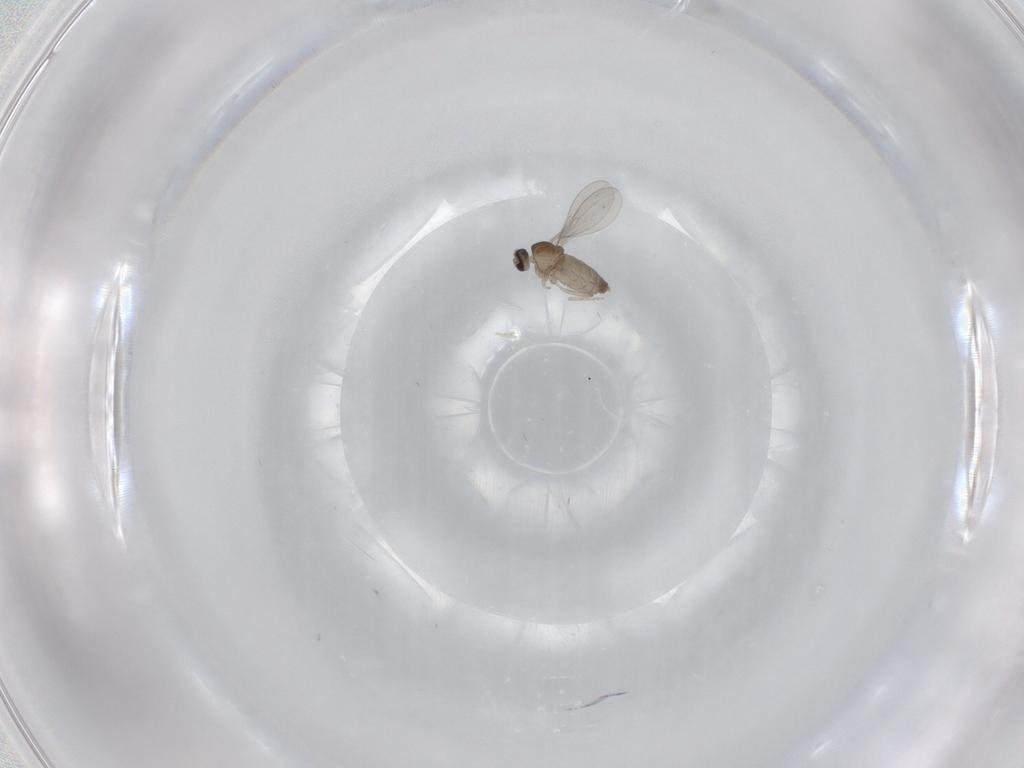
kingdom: Animalia
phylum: Arthropoda
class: Insecta
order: Diptera
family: Cecidomyiidae
